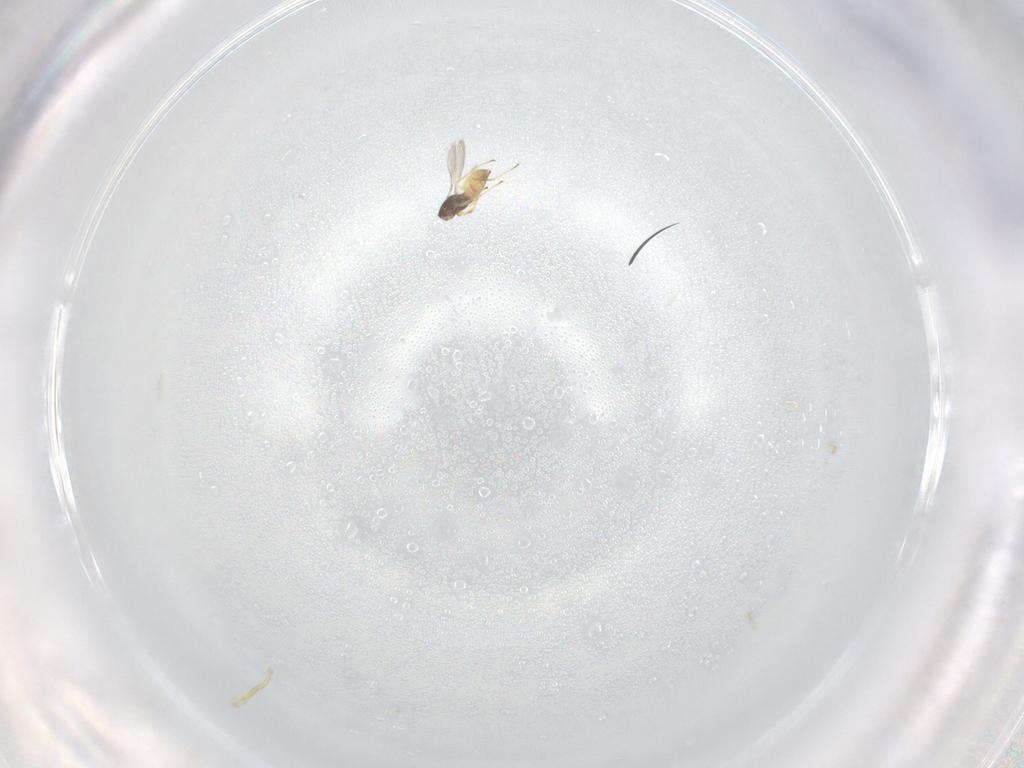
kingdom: Animalia
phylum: Arthropoda
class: Insecta
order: Hymenoptera
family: Mymaridae
